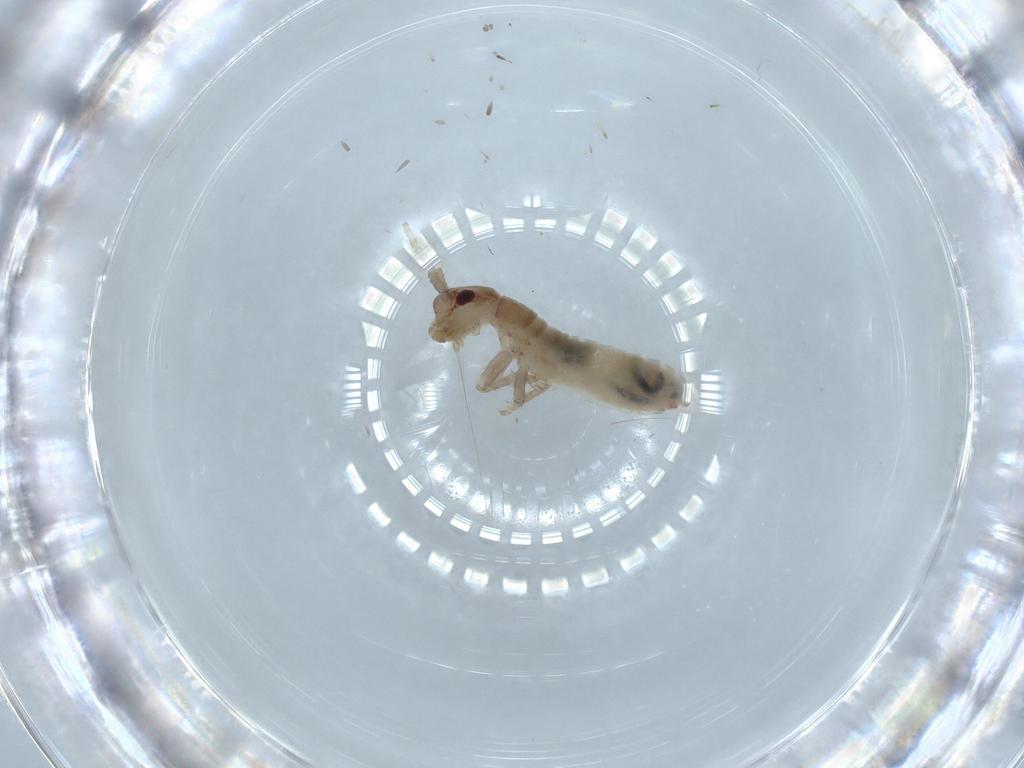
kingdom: Animalia
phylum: Arthropoda
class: Insecta
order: Orthoptera
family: Mogoplistidae
